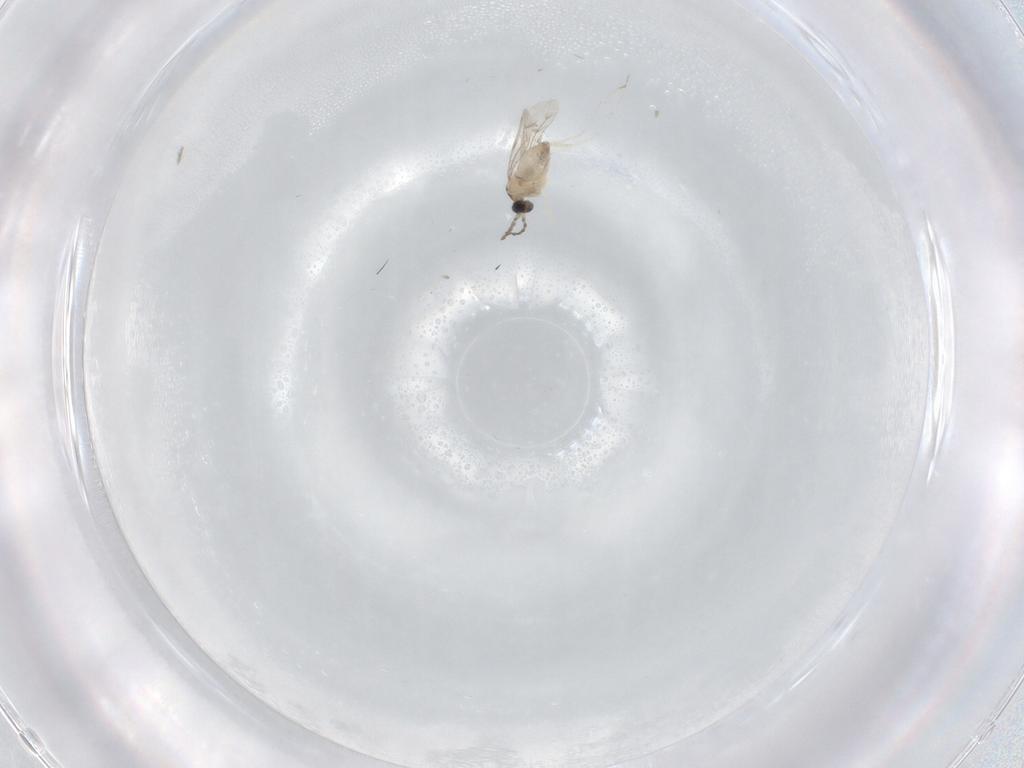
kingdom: Animalia
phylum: Arthropoda
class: Insecta
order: Diptera
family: Cecidomyiidae
